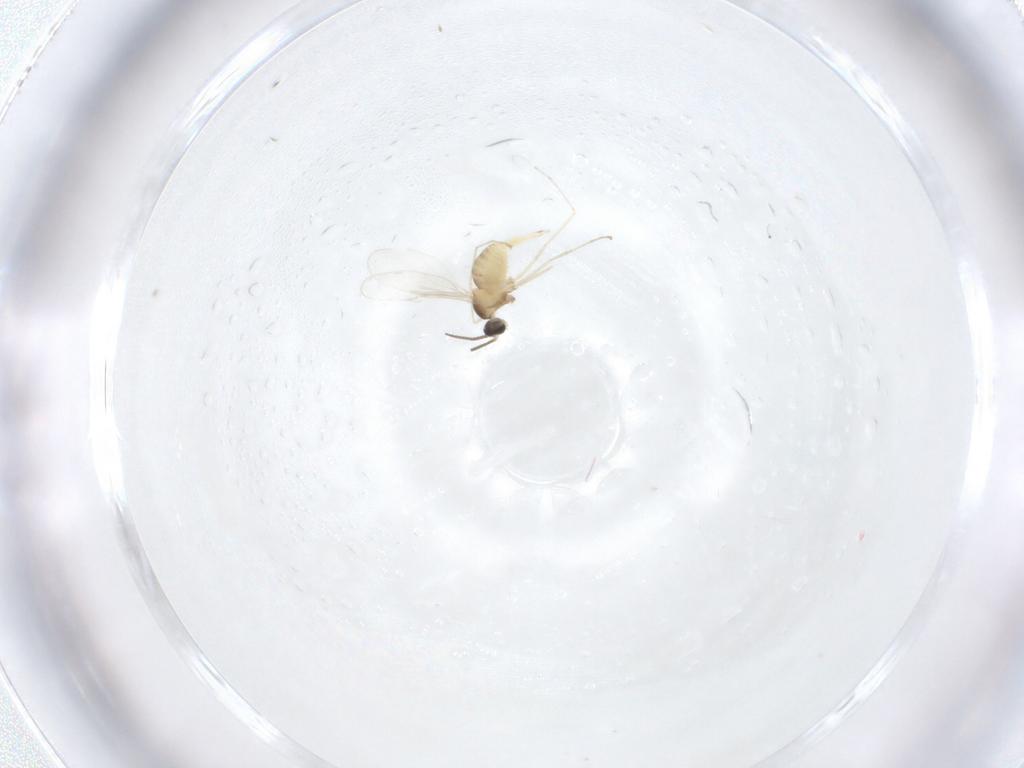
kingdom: Animalia
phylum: Arthropoda
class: Insecta
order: Diptera
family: Cecidomyiidae
